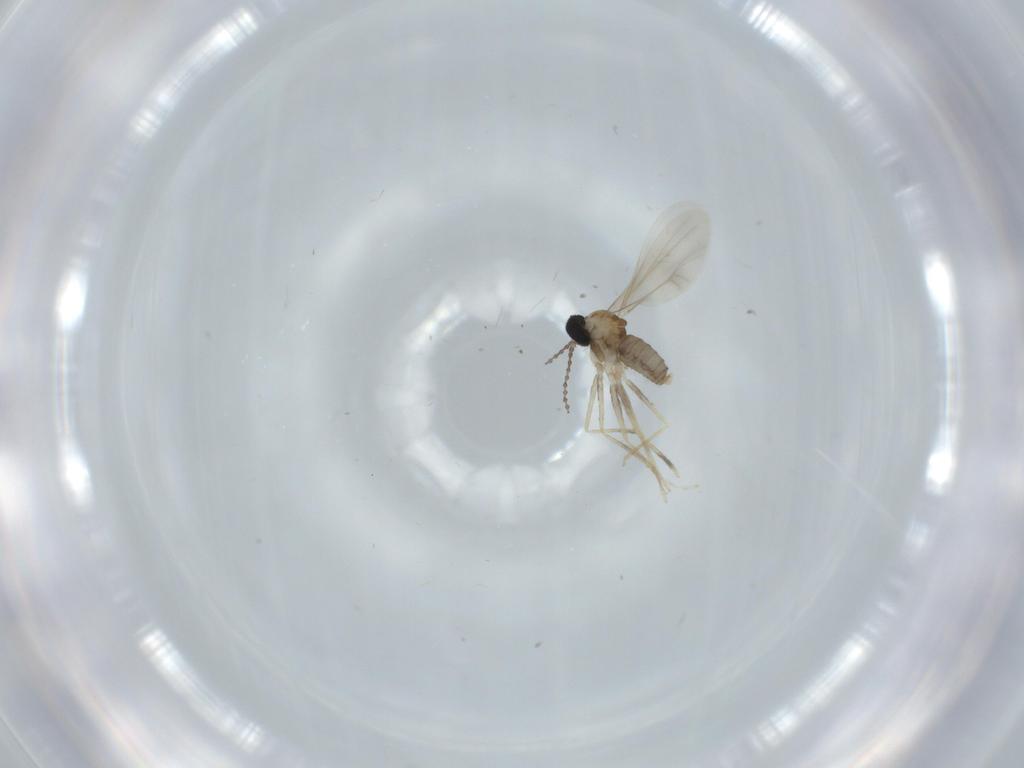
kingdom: Animalia
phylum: Arthropoda
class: Insecta
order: Diptera
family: Cecidomyiidae
